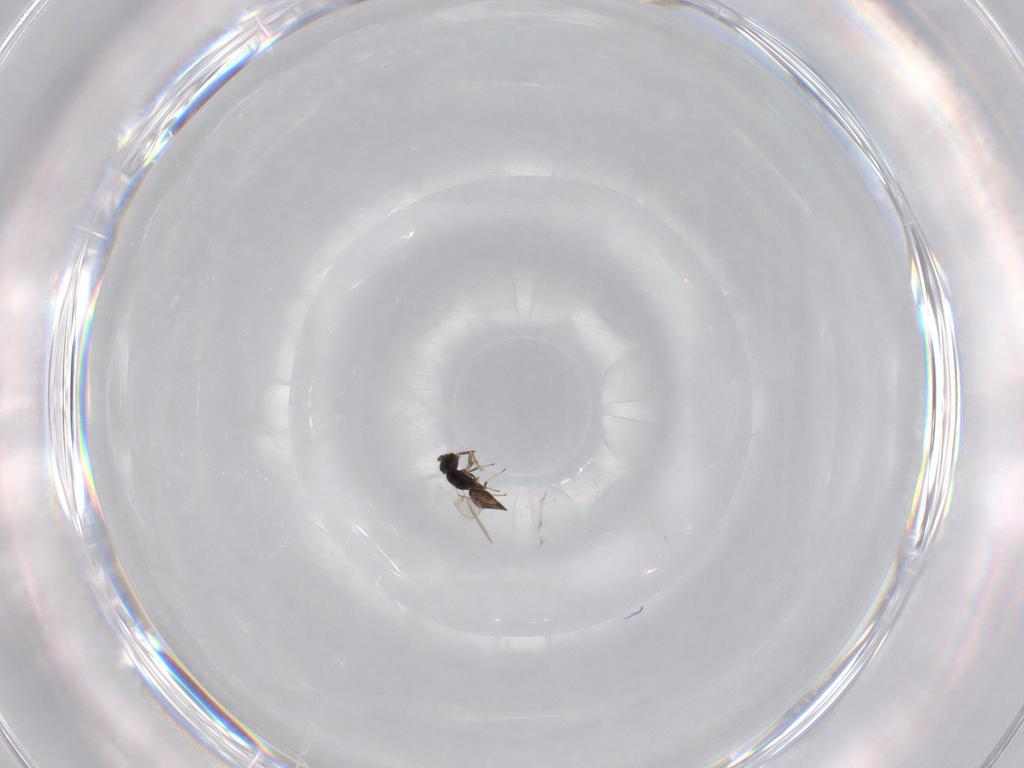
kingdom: Animalia
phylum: Arthropoda
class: Insecta
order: Hymenoptera
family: Scelionidae
